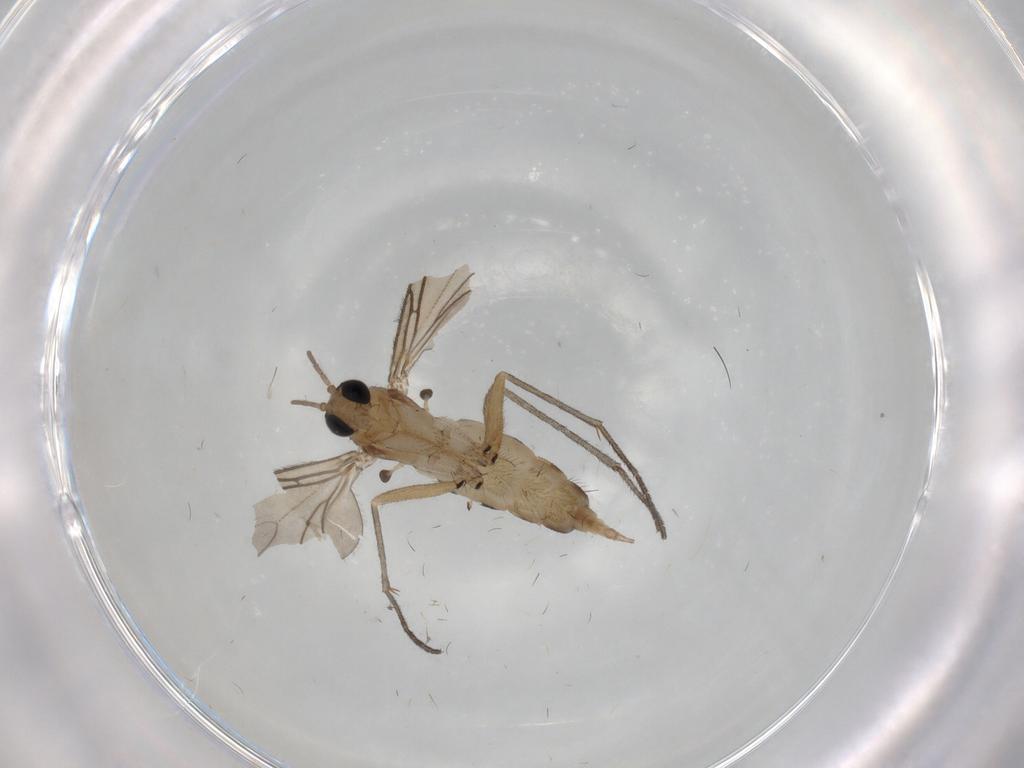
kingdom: Animalia
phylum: Arthropoda
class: Insecta
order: Diptera
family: Sciaridae
